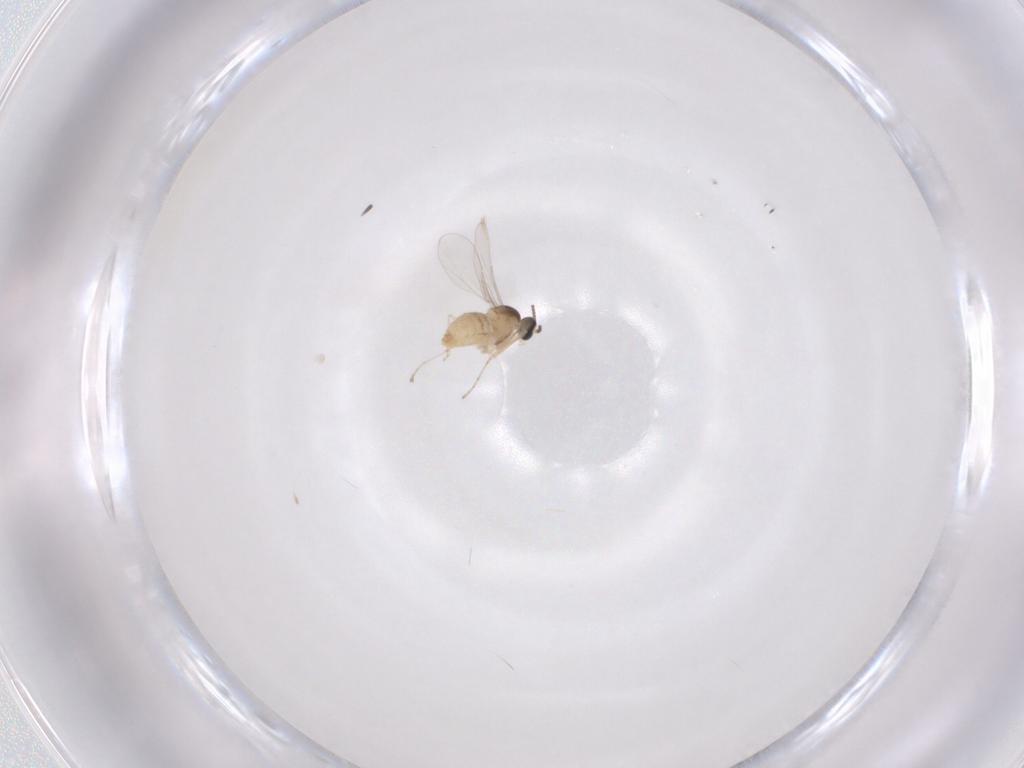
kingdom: Animalia
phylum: Arthropoda
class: Insecta
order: Diptera
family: Cecidomyiidae
